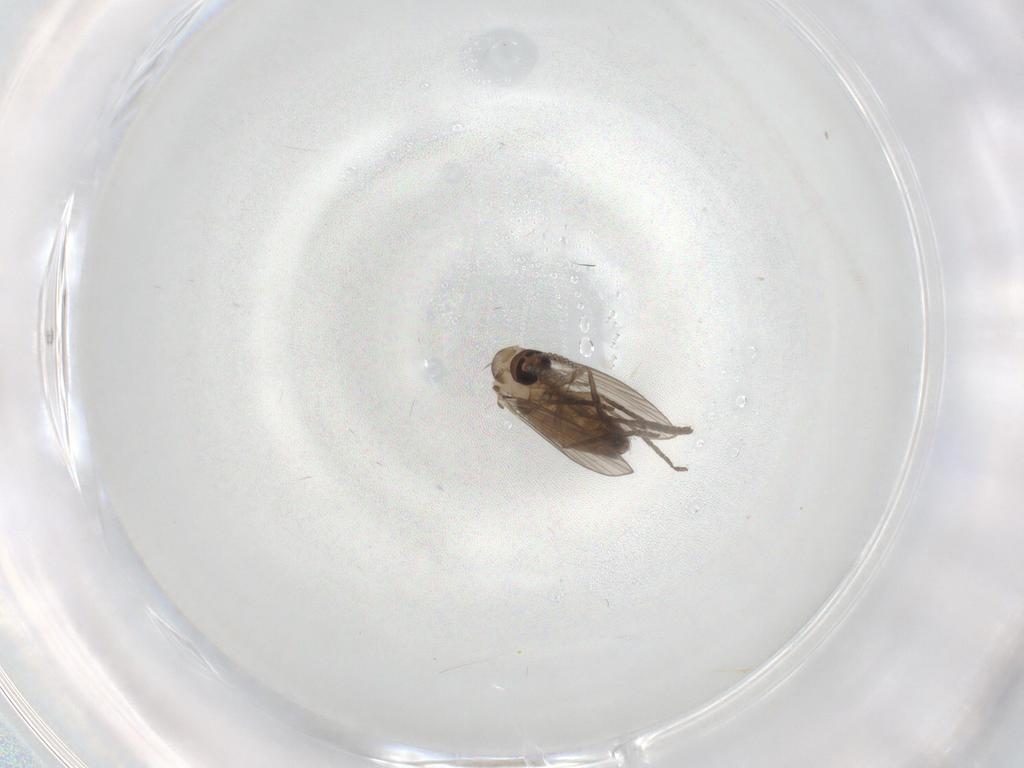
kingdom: Animalia
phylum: Arthropoda
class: Insecta
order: Diptera
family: Psychodidae
